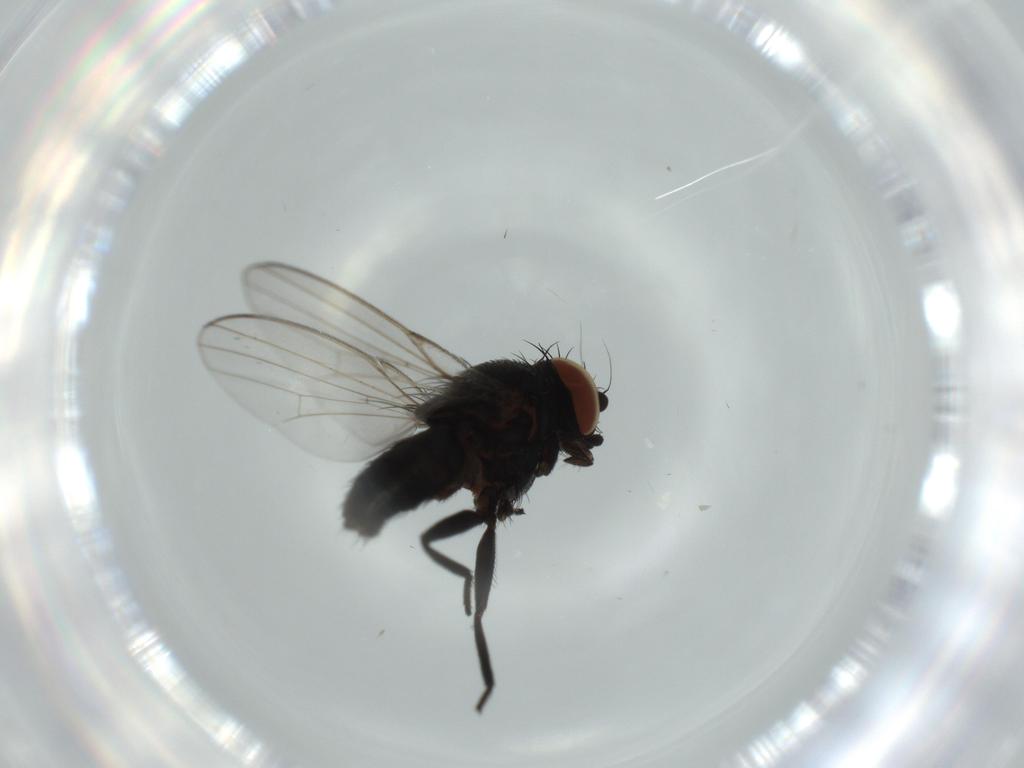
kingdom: Animalia
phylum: Arthropoda
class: Insecta
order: Diptera
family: Phoridae
